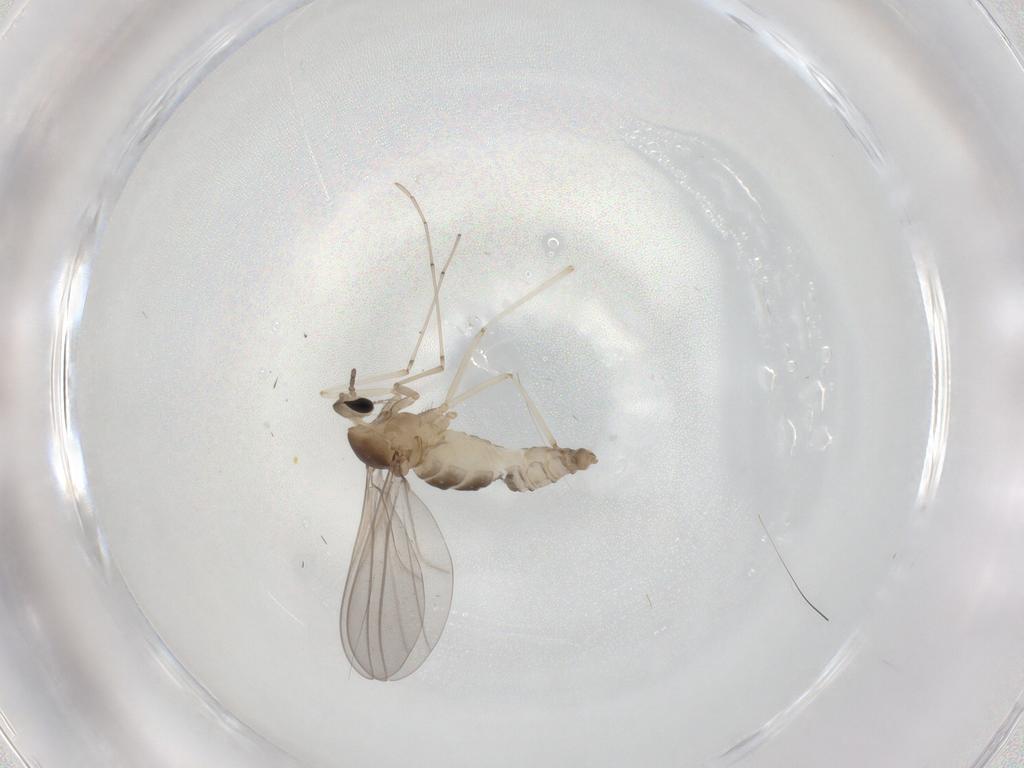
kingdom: Animalia
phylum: Arthropoda
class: Insecta
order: Diptera
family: Cecidomyiidae
